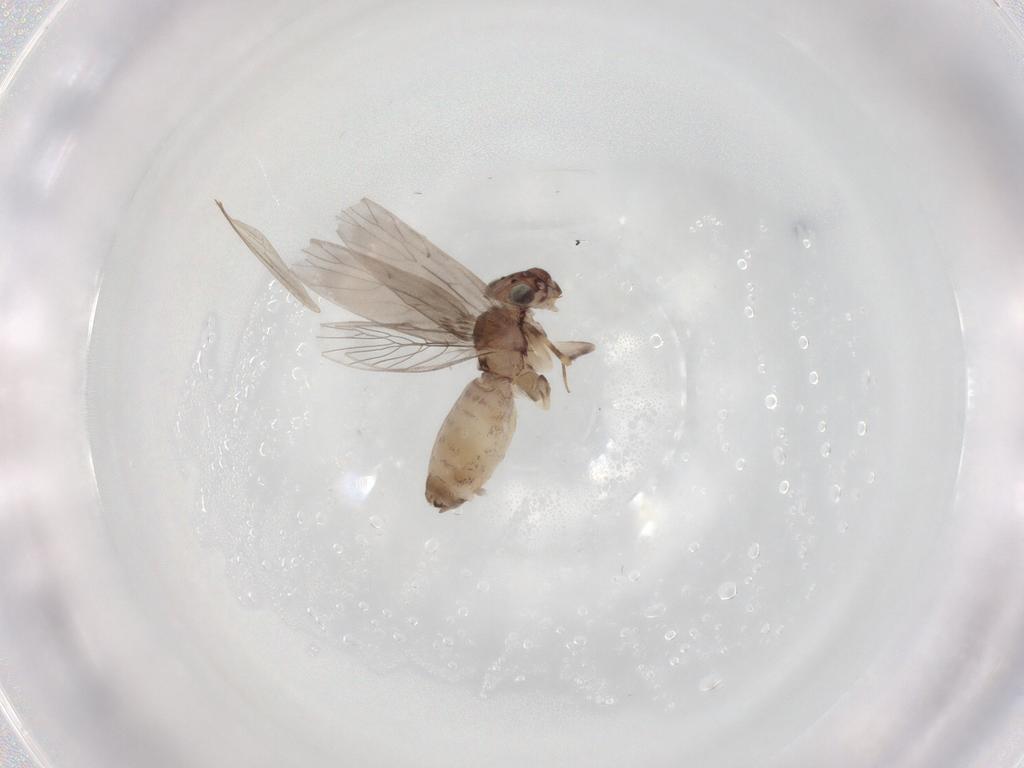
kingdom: Animalia
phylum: Arthropoda
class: Insecta
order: Psocodea
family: Lepidopsocidae
